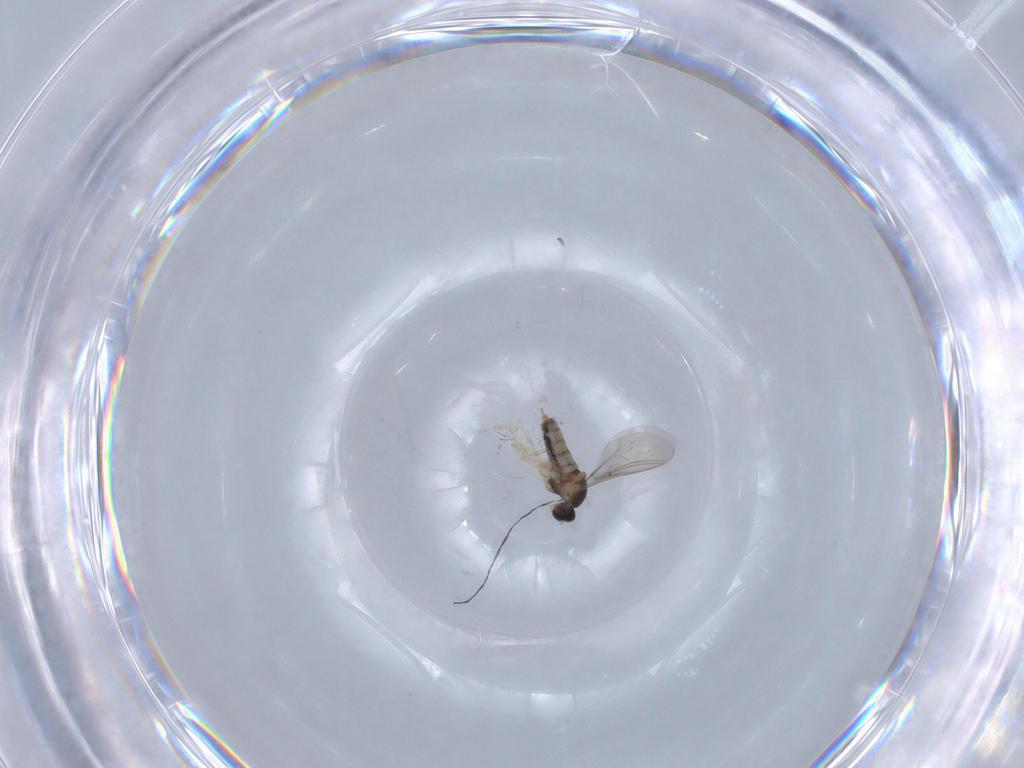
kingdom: Animalia
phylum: Arthropoda
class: Insecta
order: Diptera
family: Cecidomyiidae
